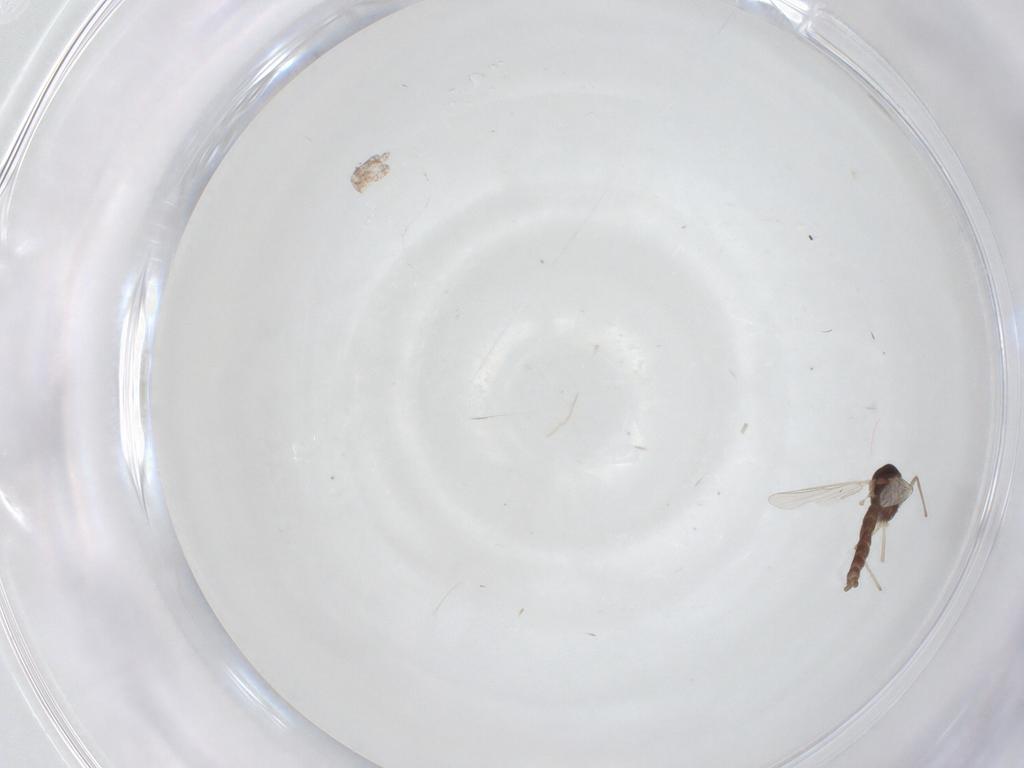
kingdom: Animalia
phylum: Arthropoda
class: Insecta
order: Diptera
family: Chironomidae
